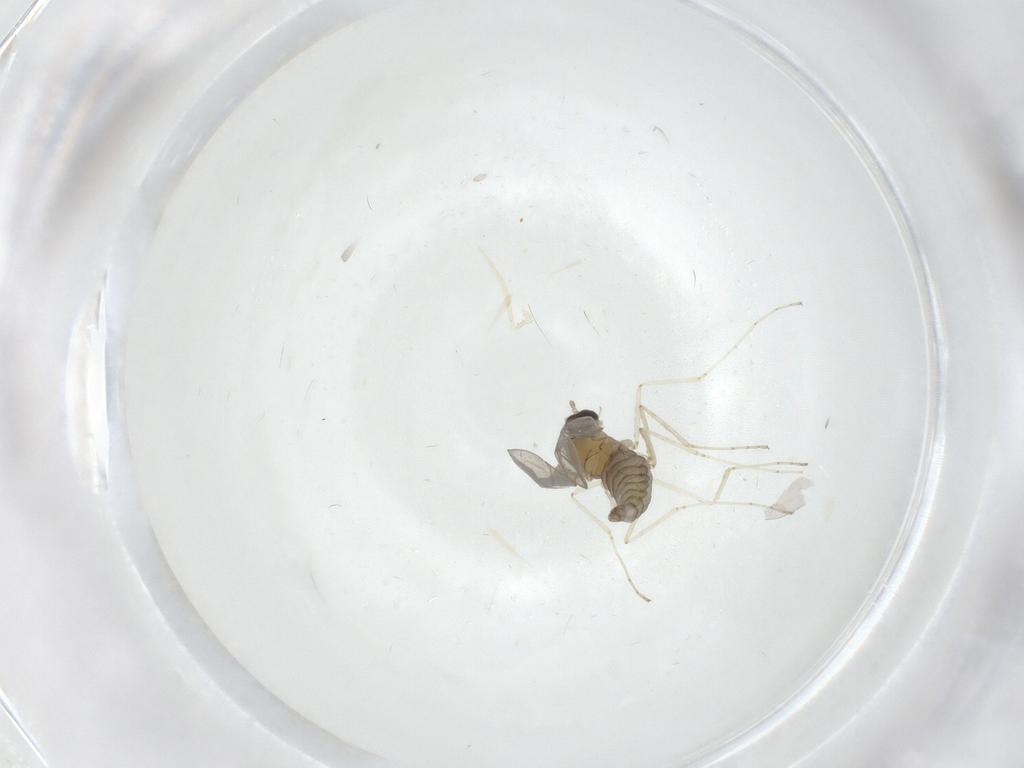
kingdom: Animalia
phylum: Arthropoda
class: Insecta
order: Diptera
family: Cecidomyiidae
